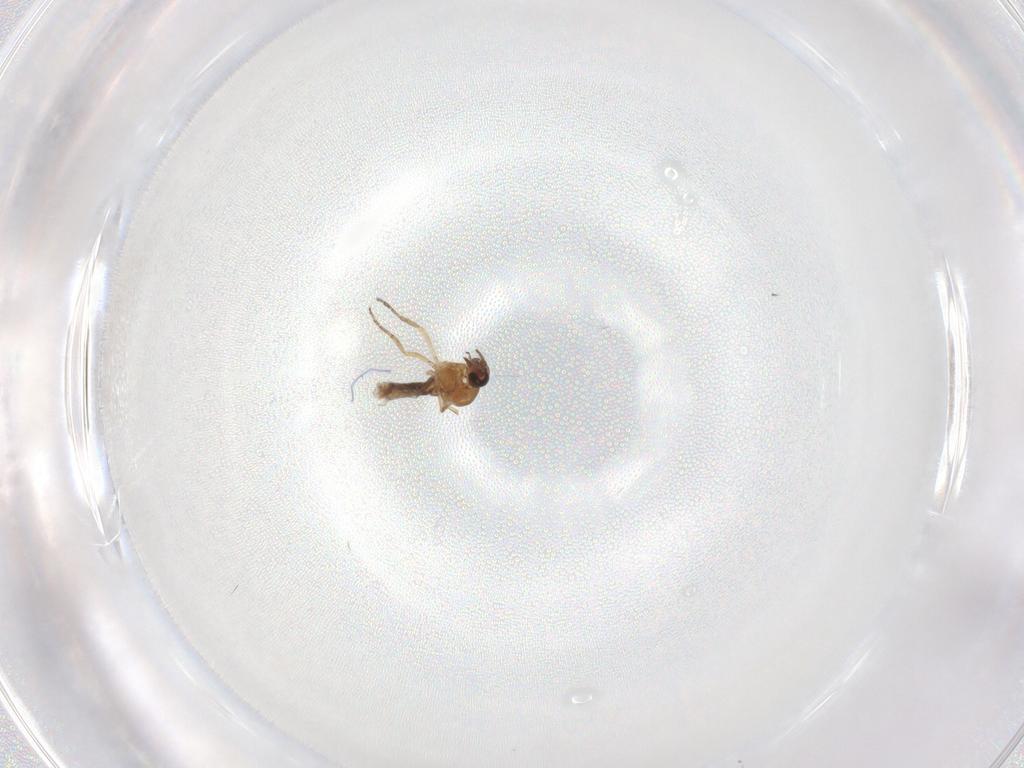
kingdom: Animalia
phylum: Arthropoda
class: Insecta
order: Diptera
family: Ceratopogonidae
